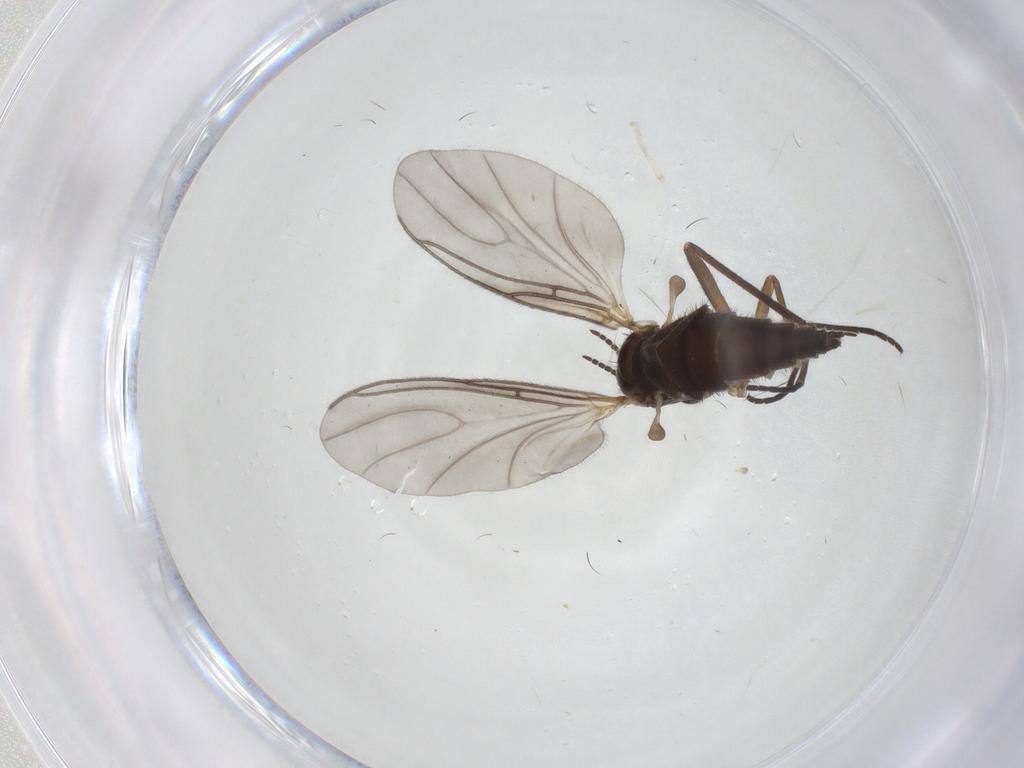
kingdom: Animalia
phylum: Arthropoda
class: Insecta
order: Diptera
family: Sciaridae
